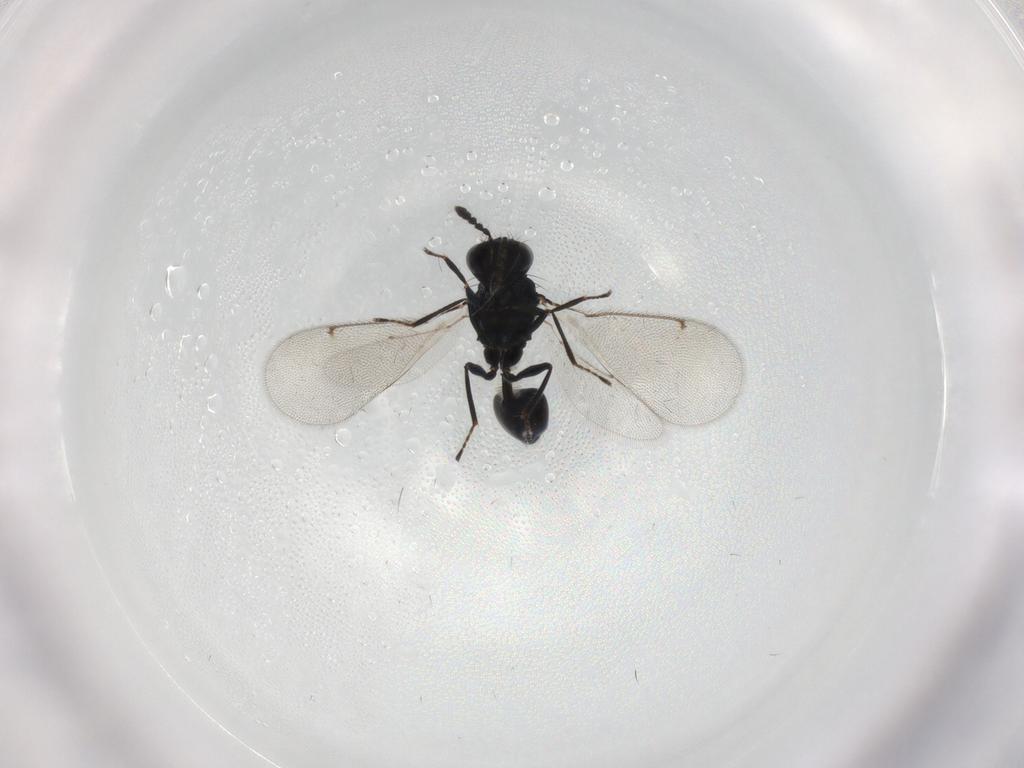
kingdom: Animalia
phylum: Arthropoda
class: Insecta
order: Hymenoptera
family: Eulophidae
